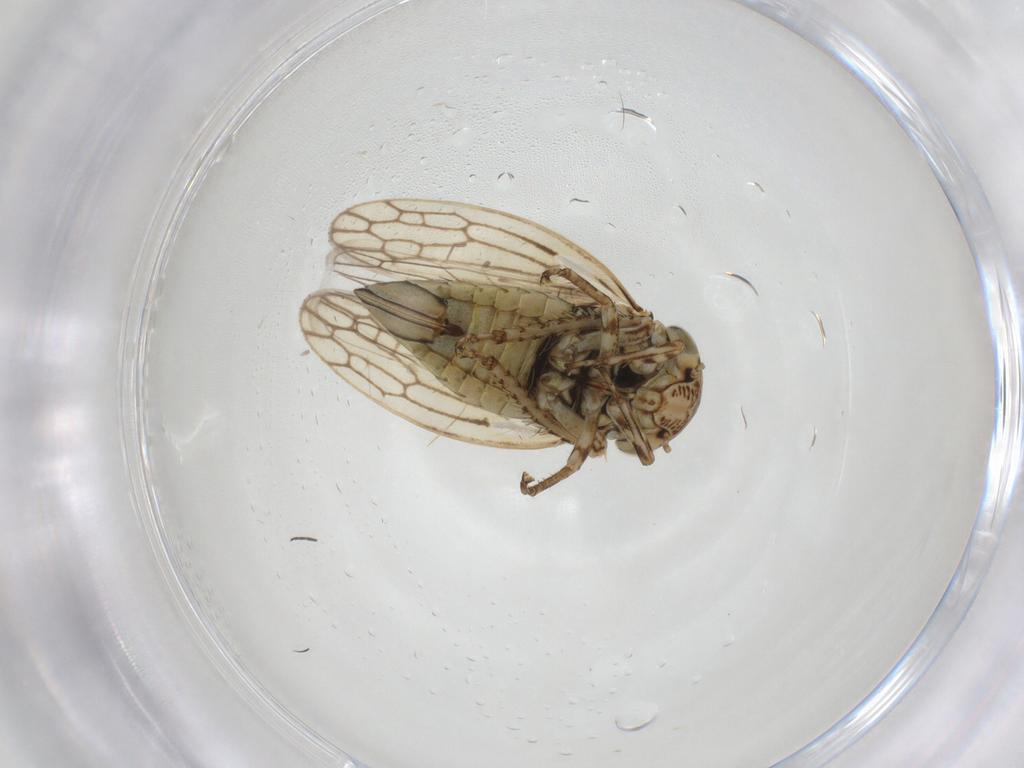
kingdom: Animalia
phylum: Arthropoda
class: Insecta
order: Hemiptera
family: Cicadellidae
